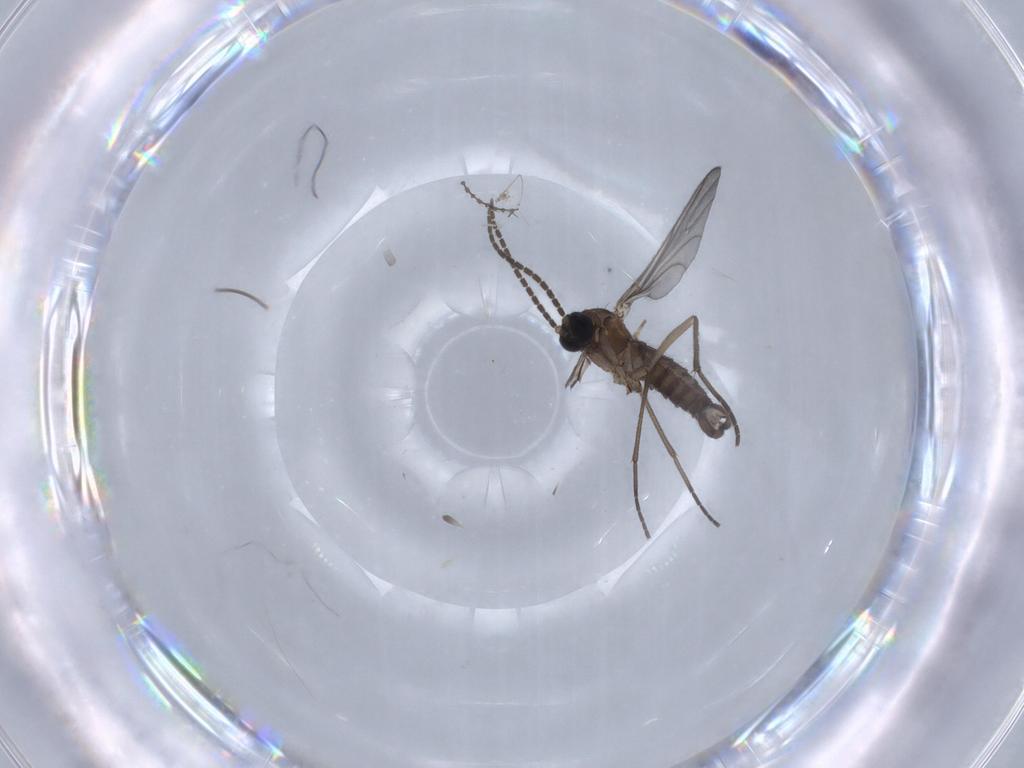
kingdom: Animalia
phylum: Arthropoda
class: Insecta
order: Diptera
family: Sciaridae
